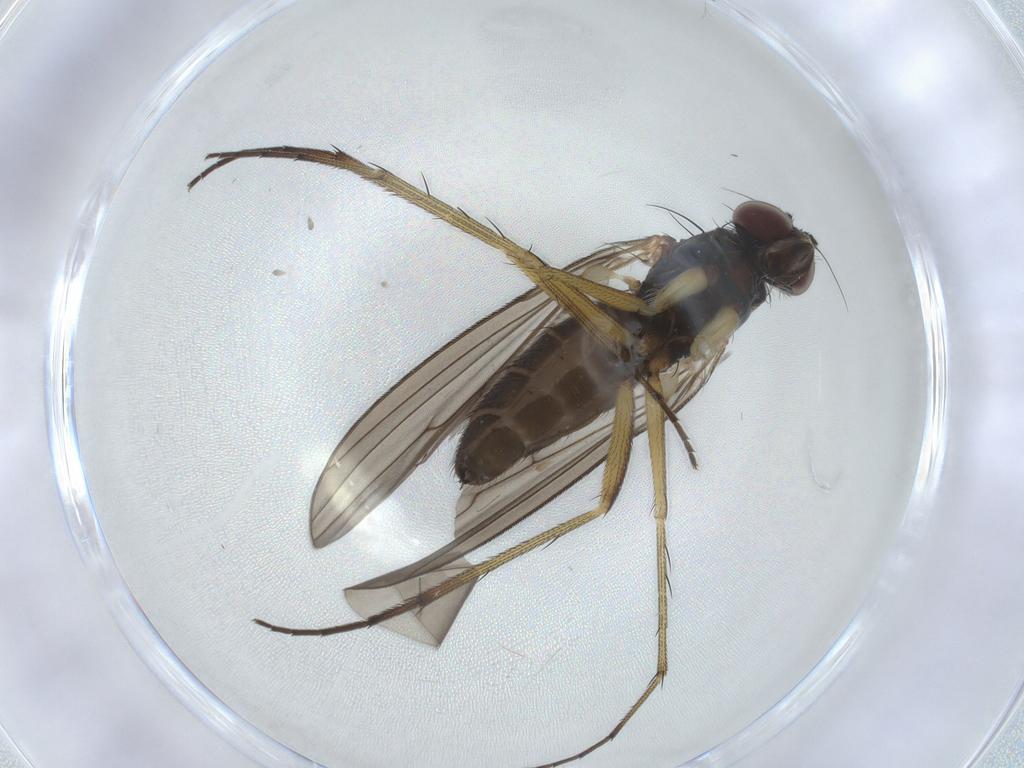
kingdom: Animalia
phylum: Arthropoda
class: Insecta
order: Diptera
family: Dolichopodidae
